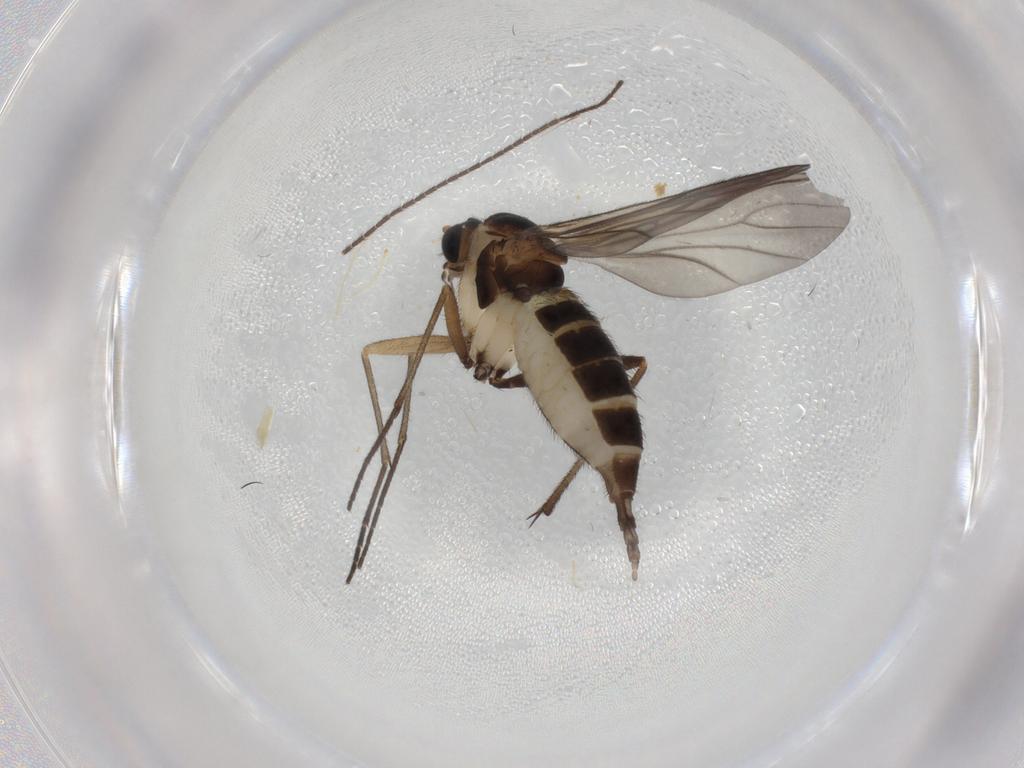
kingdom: Animalia
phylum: Arthropoda
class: Insecta
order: Diptera
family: Sciaridae
